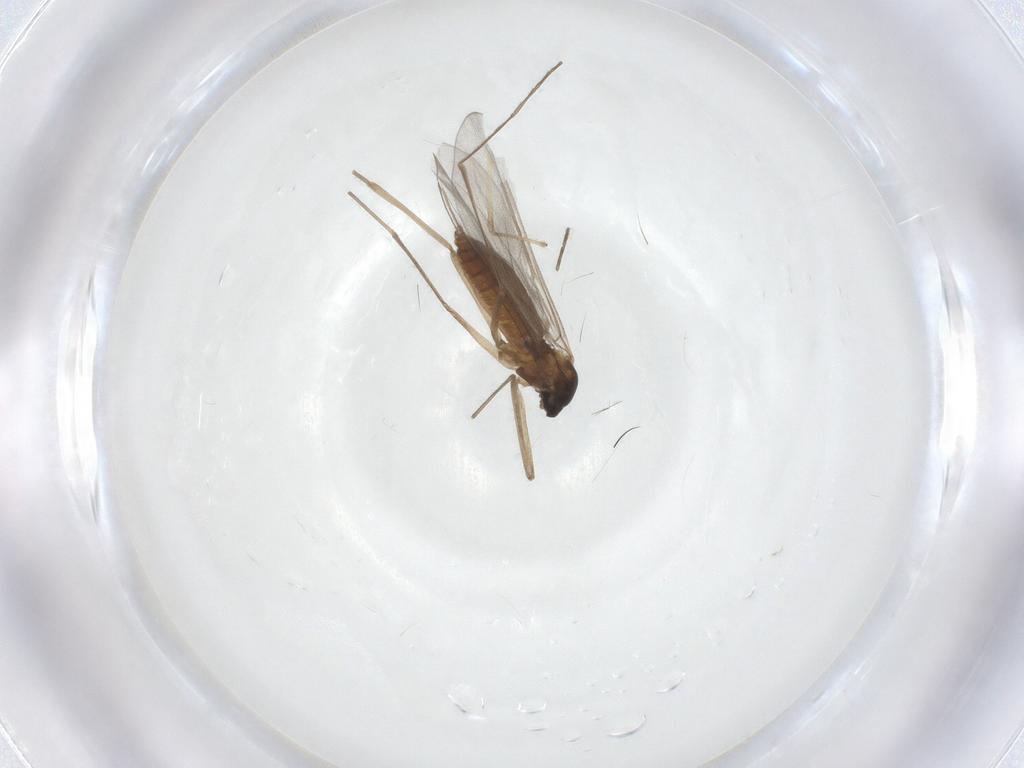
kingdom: Animalia
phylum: Arthropoda
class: Insecta
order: Diptera
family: Cecidomyiidae
